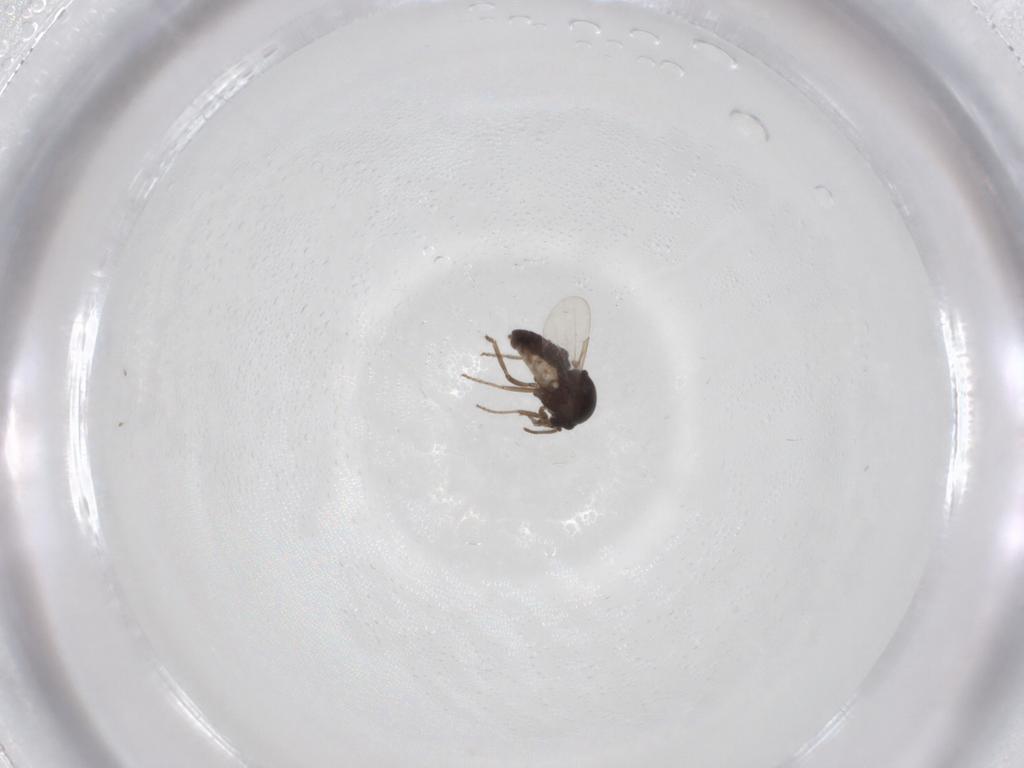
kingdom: Animalia
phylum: Arthropoda
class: Insecta
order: Diptera
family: Ceratopogonidae
